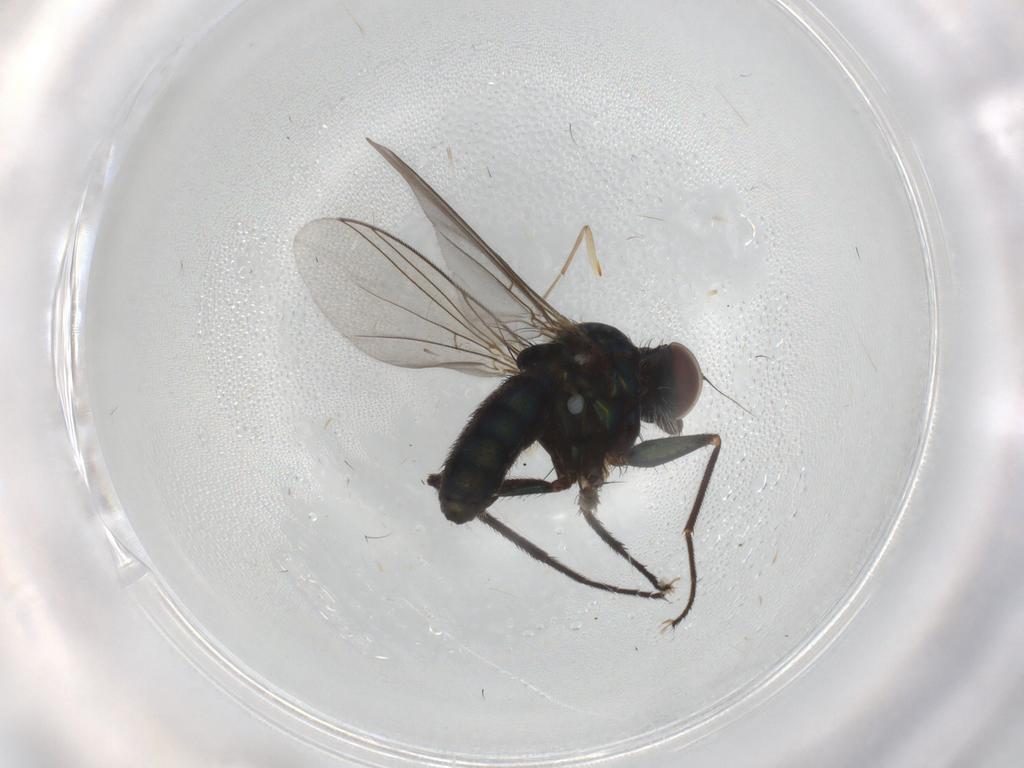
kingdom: Animalia
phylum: Arthropoda
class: Insecta
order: Diptera
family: Dolichopodidae
